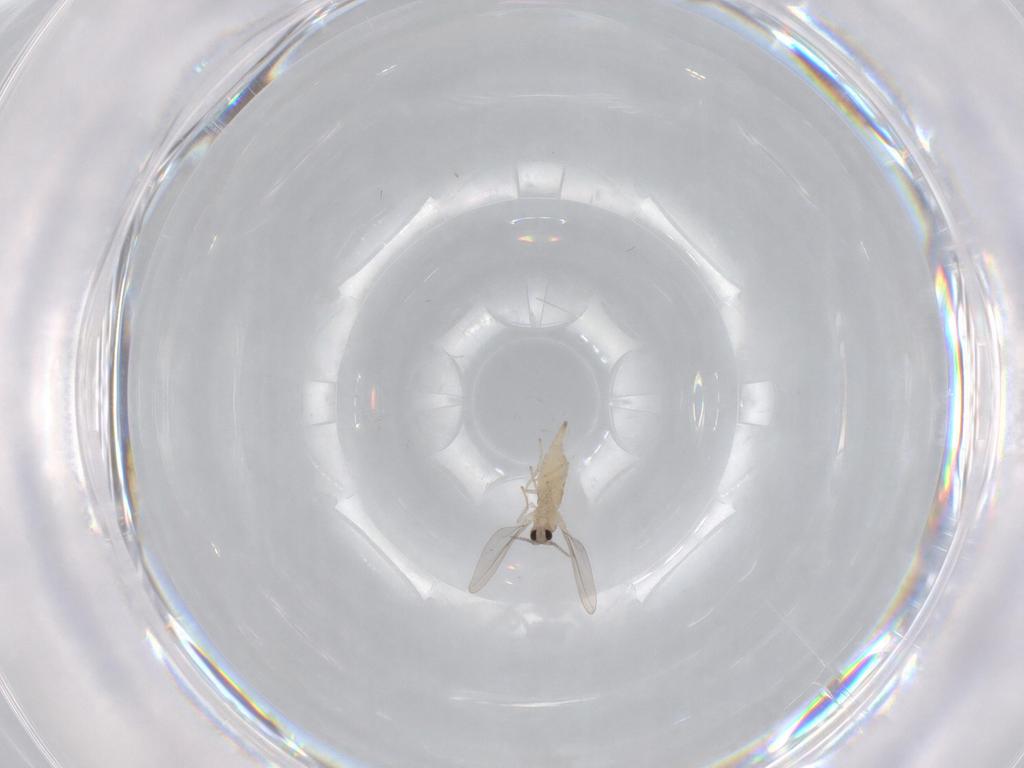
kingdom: Animalia
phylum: Arthropoda
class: Insecta
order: Diptera
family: Cecidomyiidae
